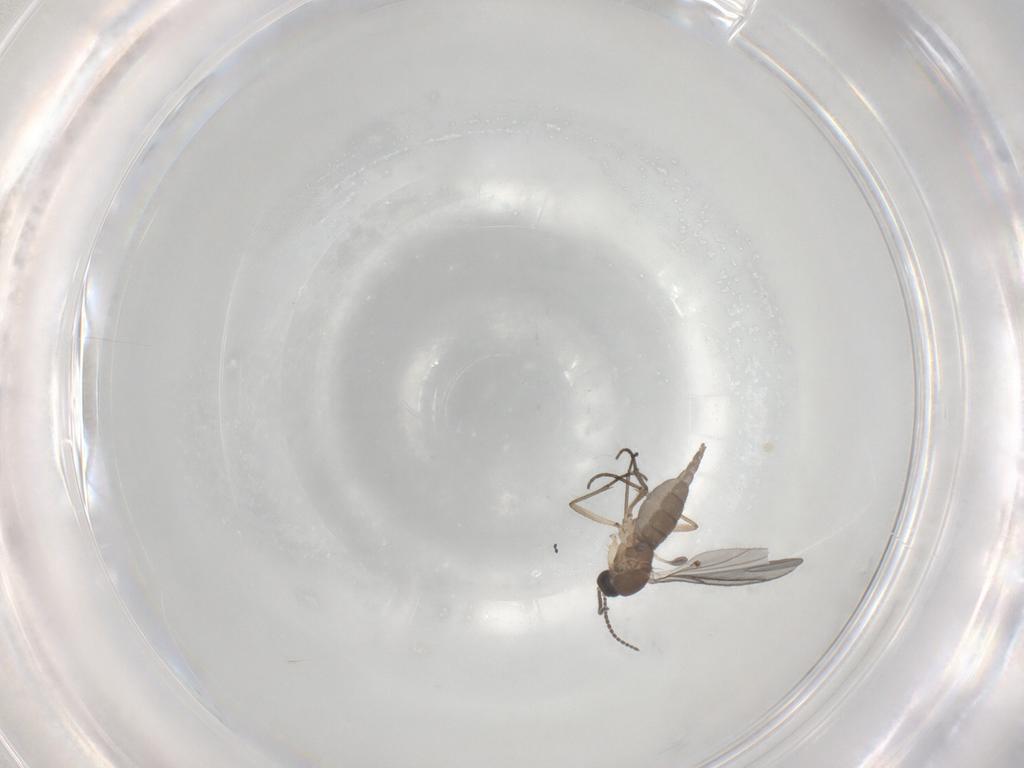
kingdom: Animalia
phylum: Arthropoda
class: Insecta
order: Diptera
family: Sciaridae
